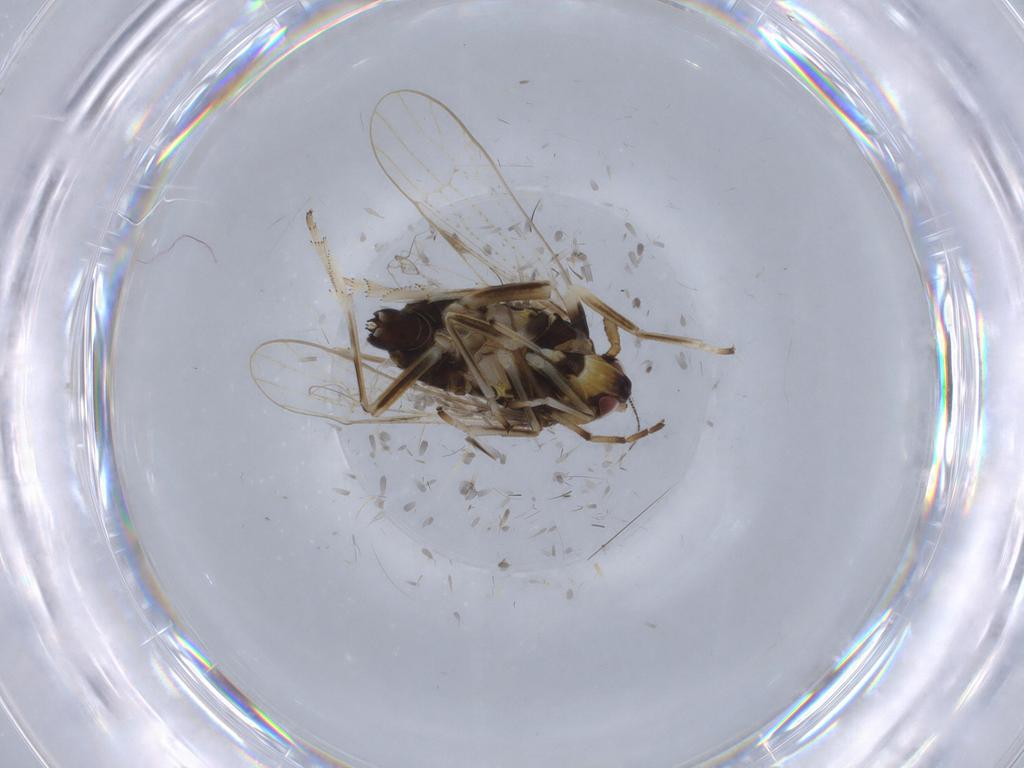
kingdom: Animalia
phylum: Arthropoda
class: Insecta
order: Hemiptera
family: Delphacidae
